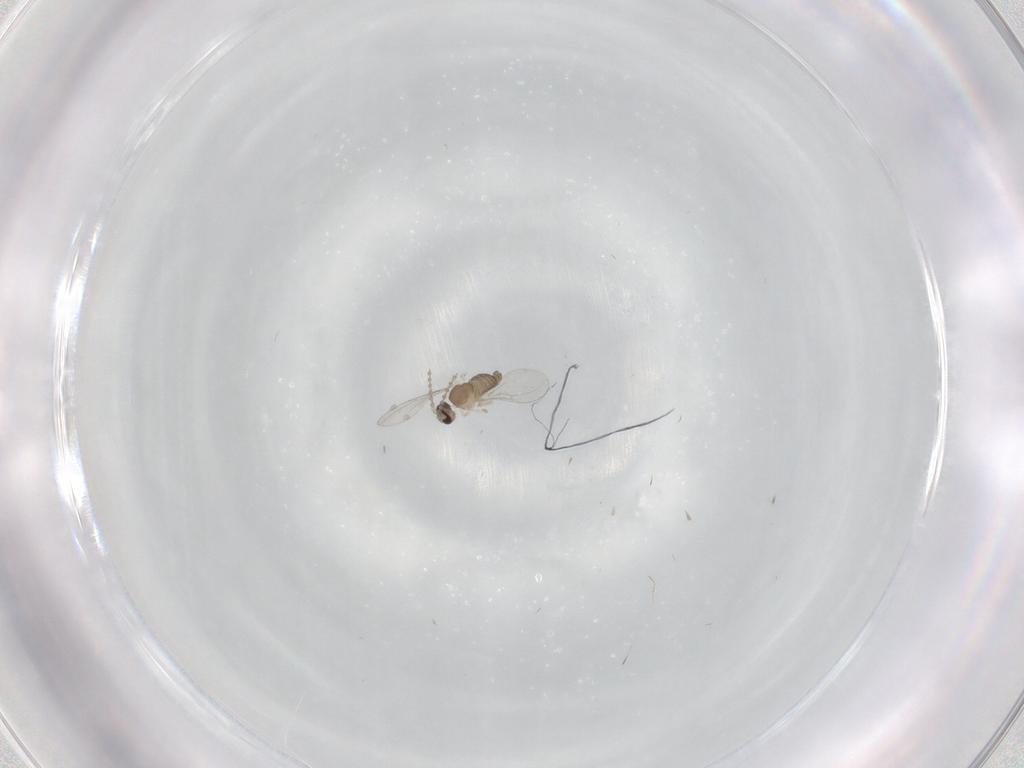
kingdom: Animalia
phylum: Arthropoda
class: Insecta
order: Diptera
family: Cecidomyiidae
